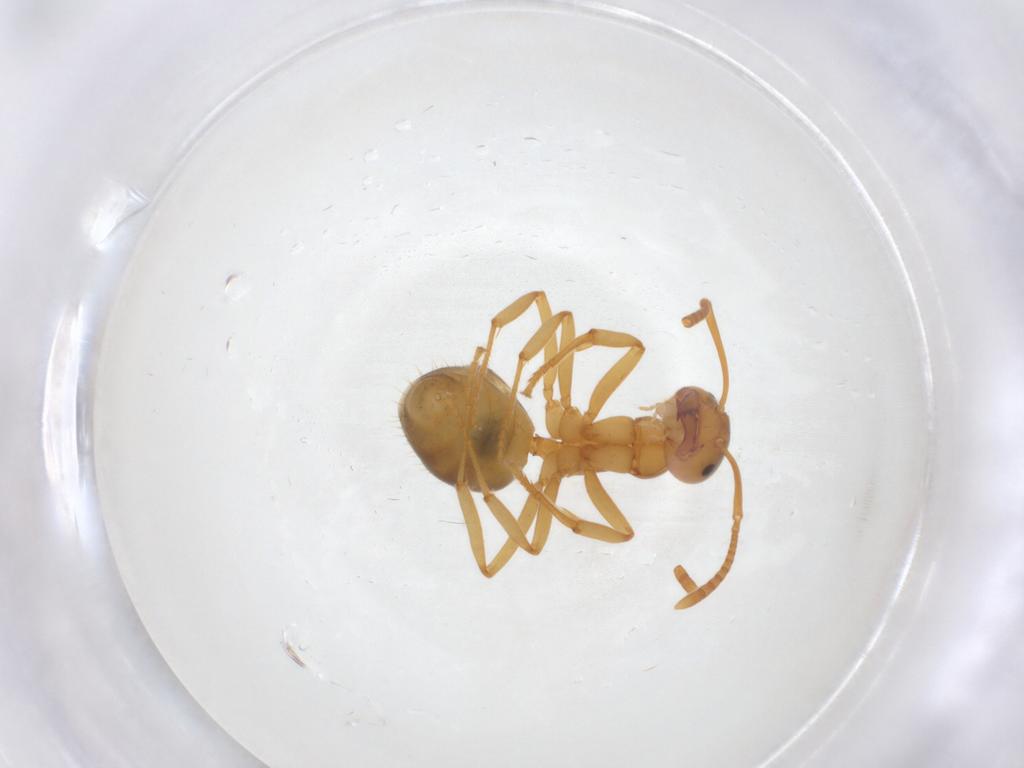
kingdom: Animalia
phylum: Arthropoda
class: Insecta
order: Hymenoptera
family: Formicidae
